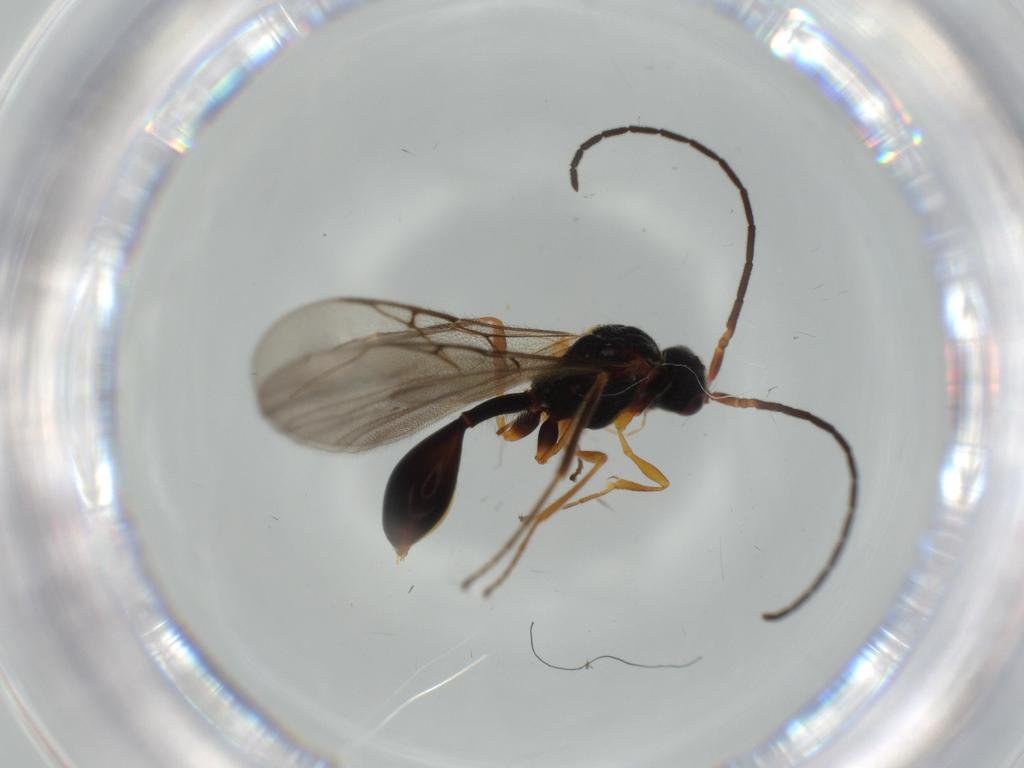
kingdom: Animalia
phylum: Arthropoda
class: Insecta
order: Hymenoptera
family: Diapriidae
